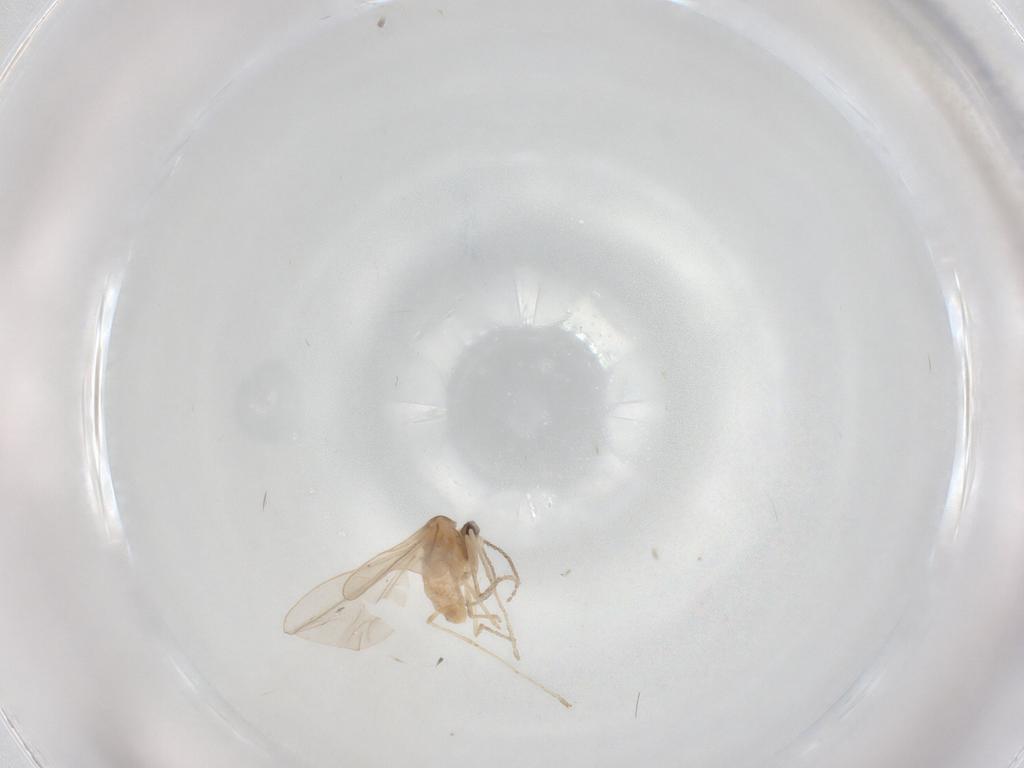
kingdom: Animalia
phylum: Arthropoda
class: Insecta
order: Diptera
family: Cecidomyiidae
